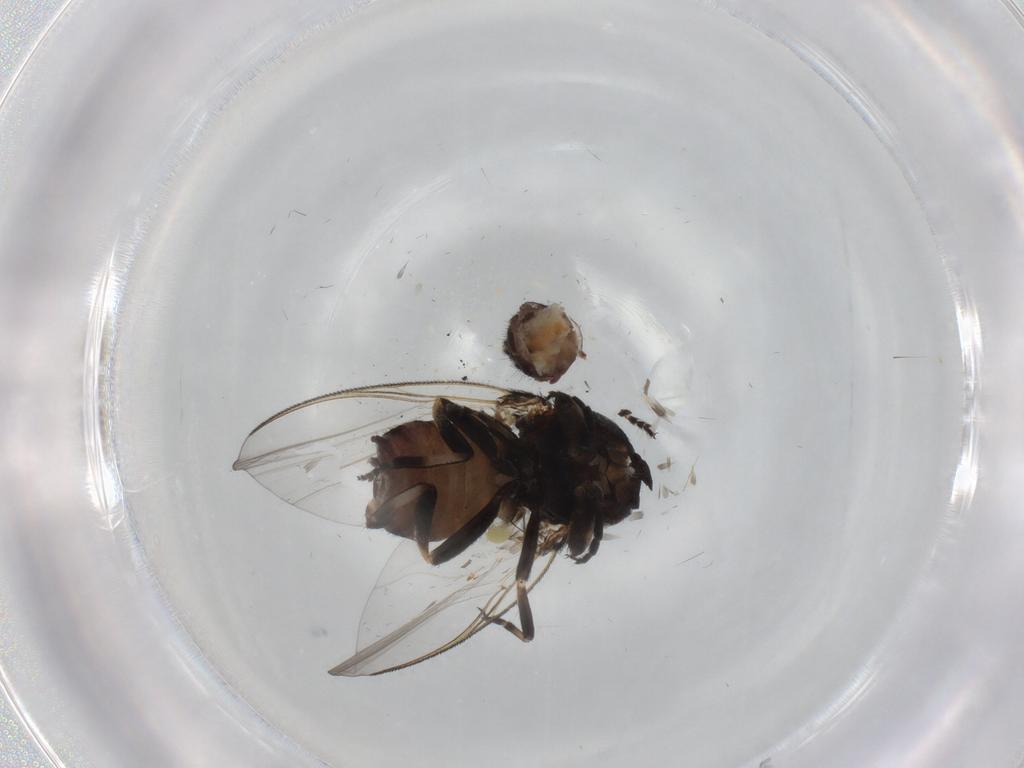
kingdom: Animalia
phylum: Arthropoda
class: Insecta
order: Diptera
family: Simuliidae
